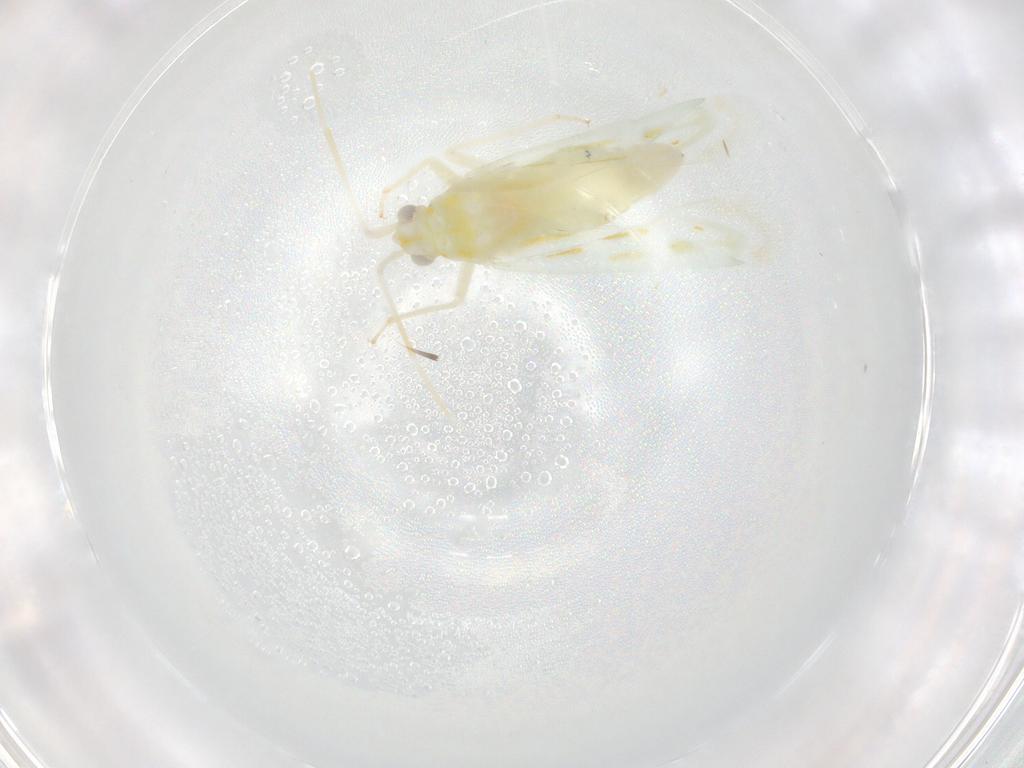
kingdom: Animalia
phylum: Arthropoda
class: Insecta
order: Hemiptera
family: Miridae
